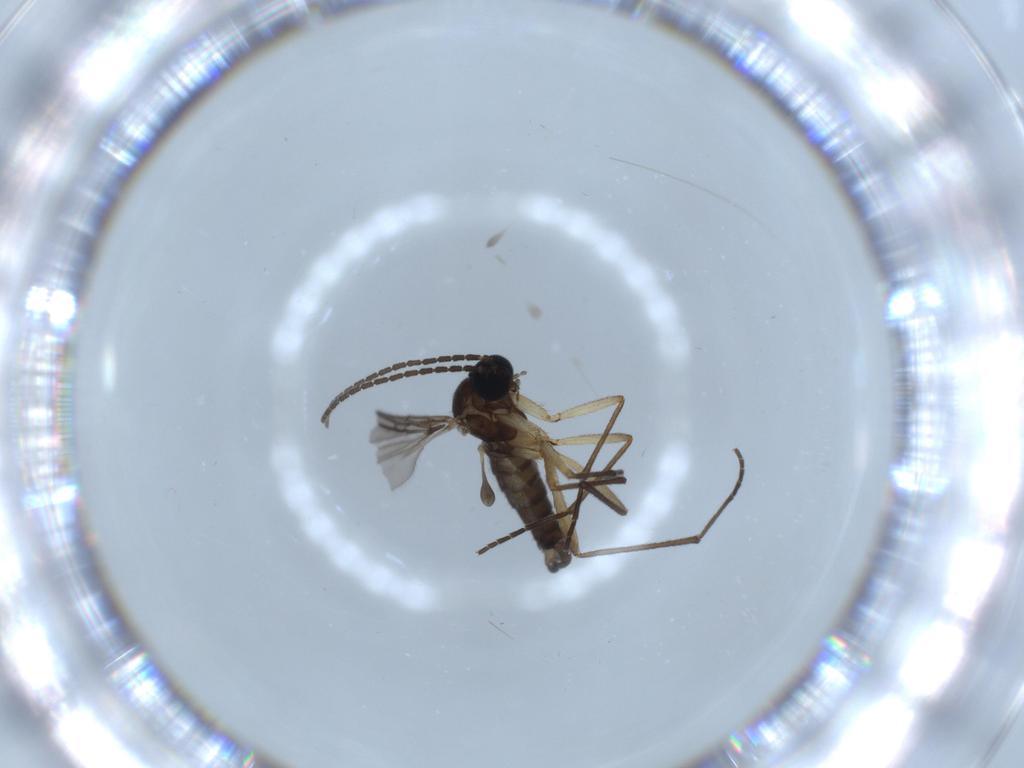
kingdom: Animalia
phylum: Arthropoda
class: Insecta
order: Diptera
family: Sciaridae
